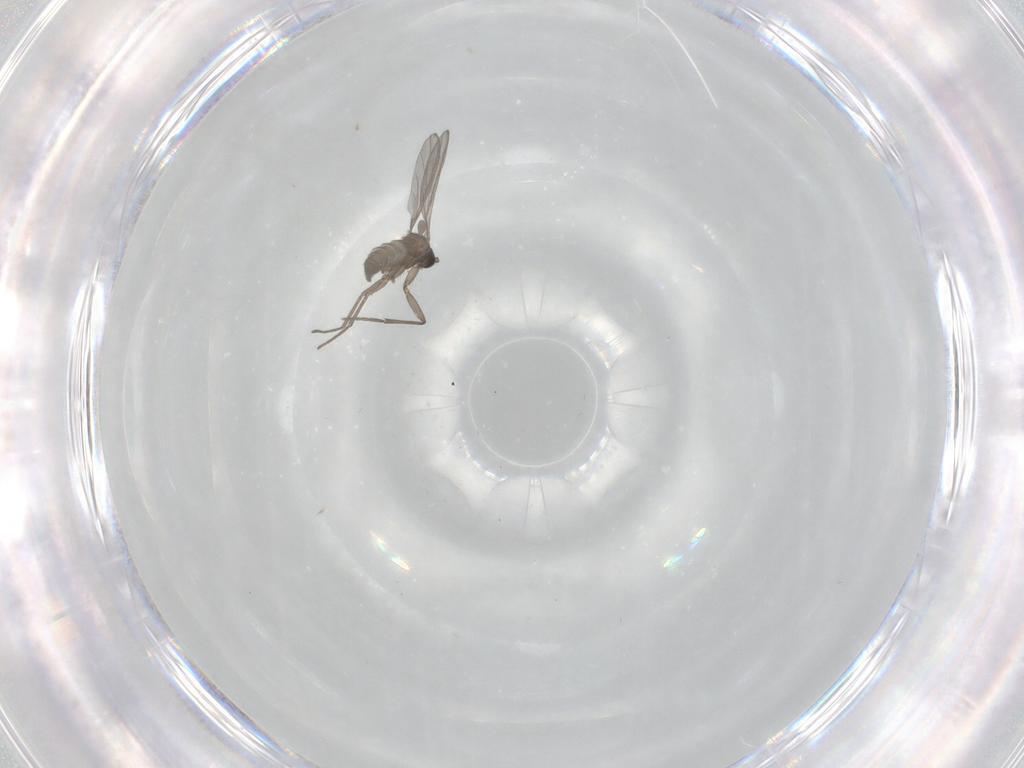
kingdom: Animalia
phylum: Arthropoda
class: Insecta
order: Diptera
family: Sciaridae
